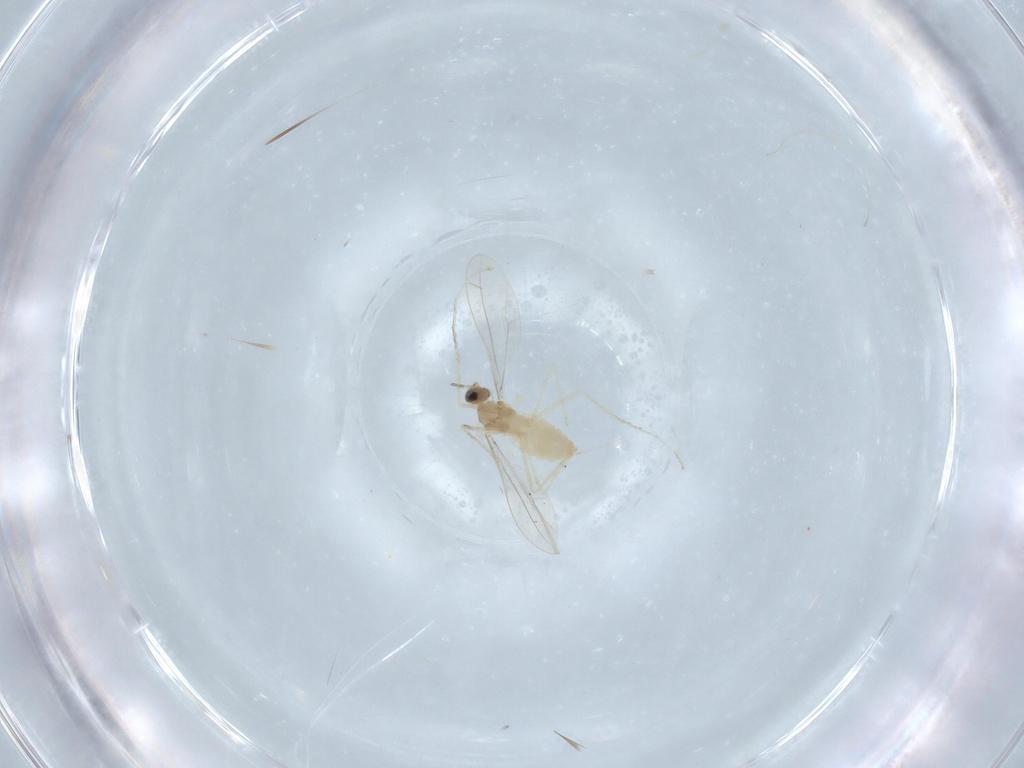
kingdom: Animalia
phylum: Arthropoda
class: Insecta
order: Diptera
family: Cecidomyiidae
